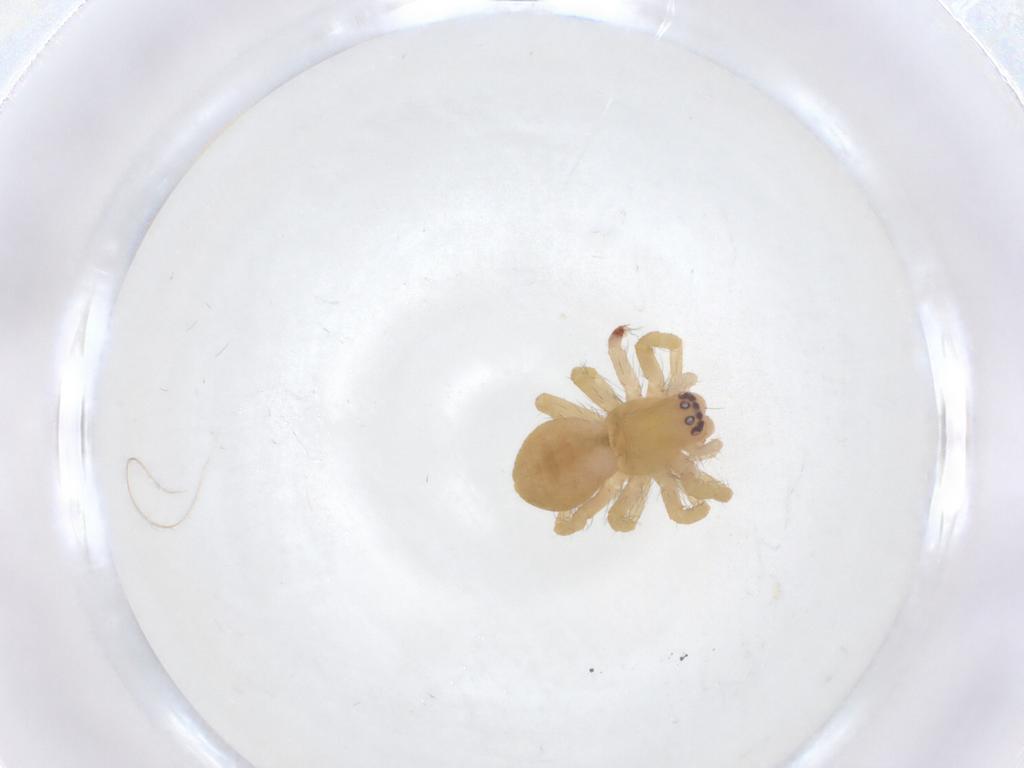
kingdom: Animalia
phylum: Arthropoda
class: Arachnida
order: Araneae
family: Mimetidae
